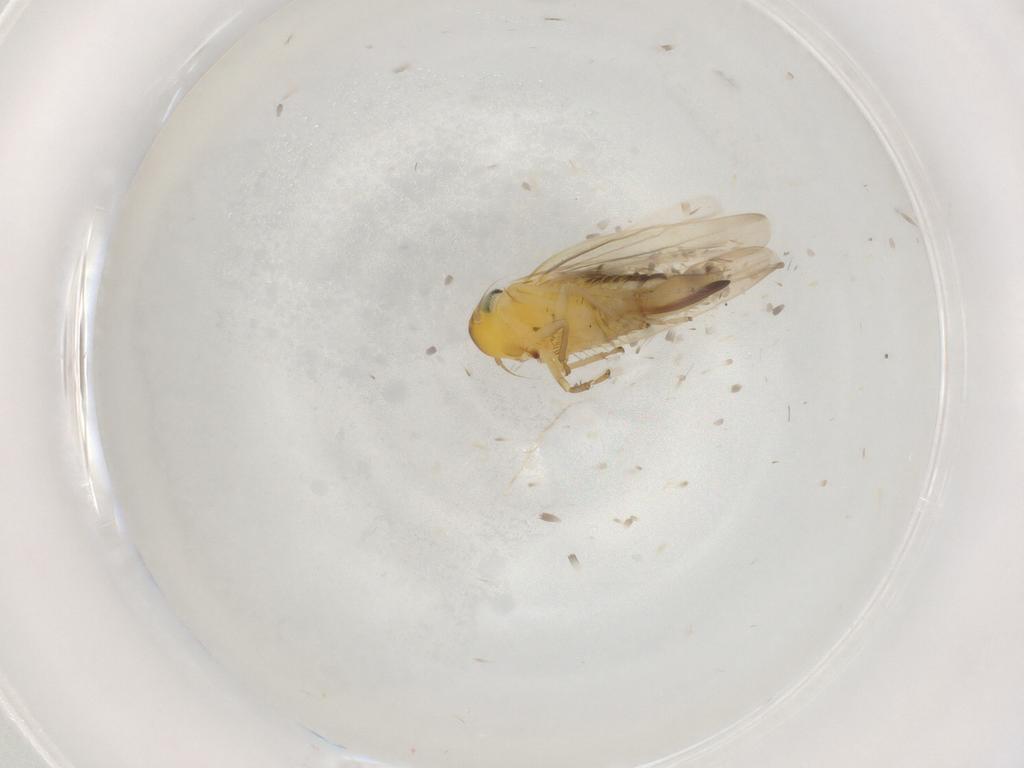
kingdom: Animalia
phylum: Arthropoda
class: Insecta
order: Hemiptera
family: Cicadellidae
